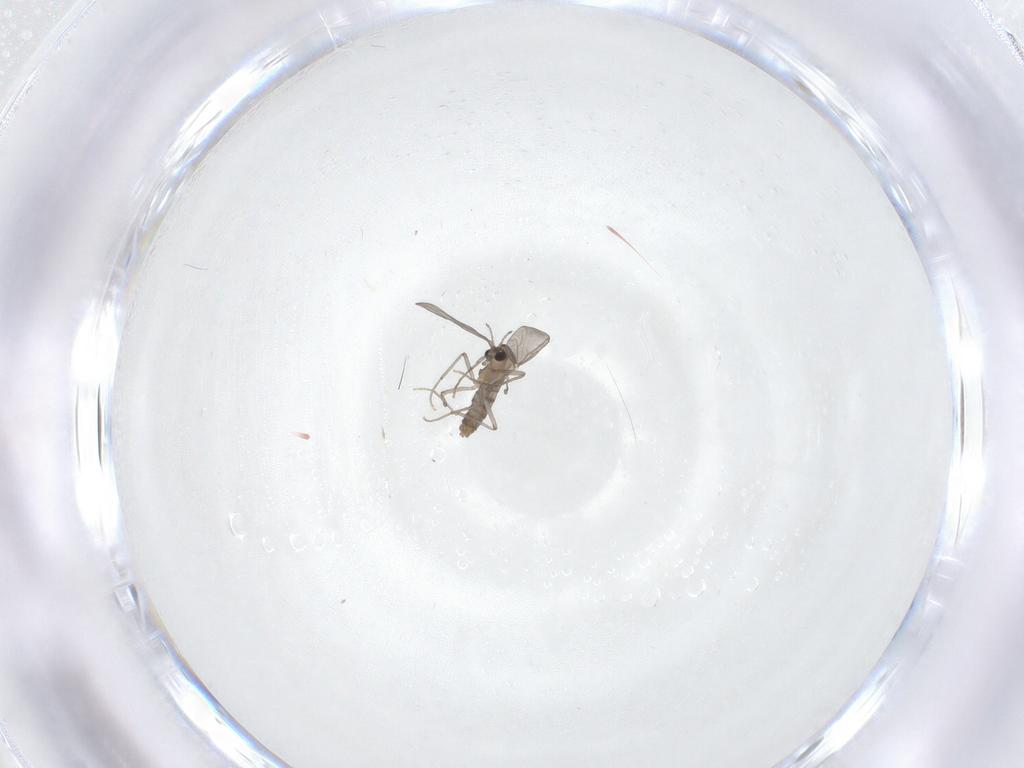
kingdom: Animalia
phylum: Arthropoda
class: Insecta
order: Diptera
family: Chironomidae
